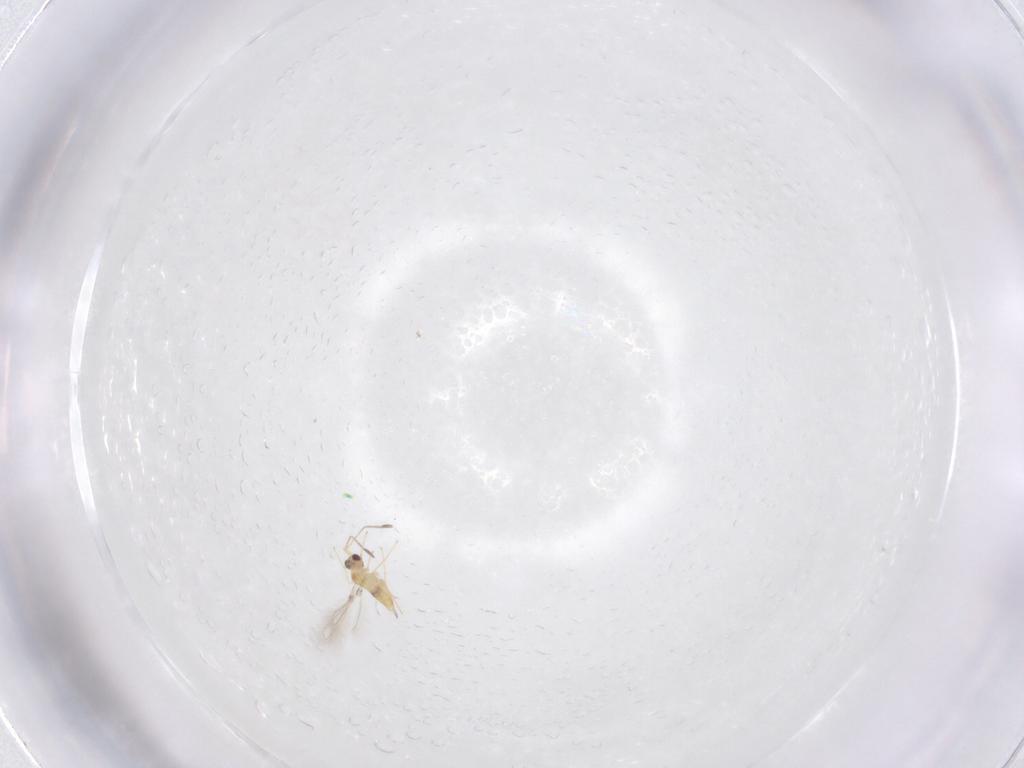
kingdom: Animalia
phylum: Arthropoda
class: Insecta
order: Hymenoptera
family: Mymaridae
